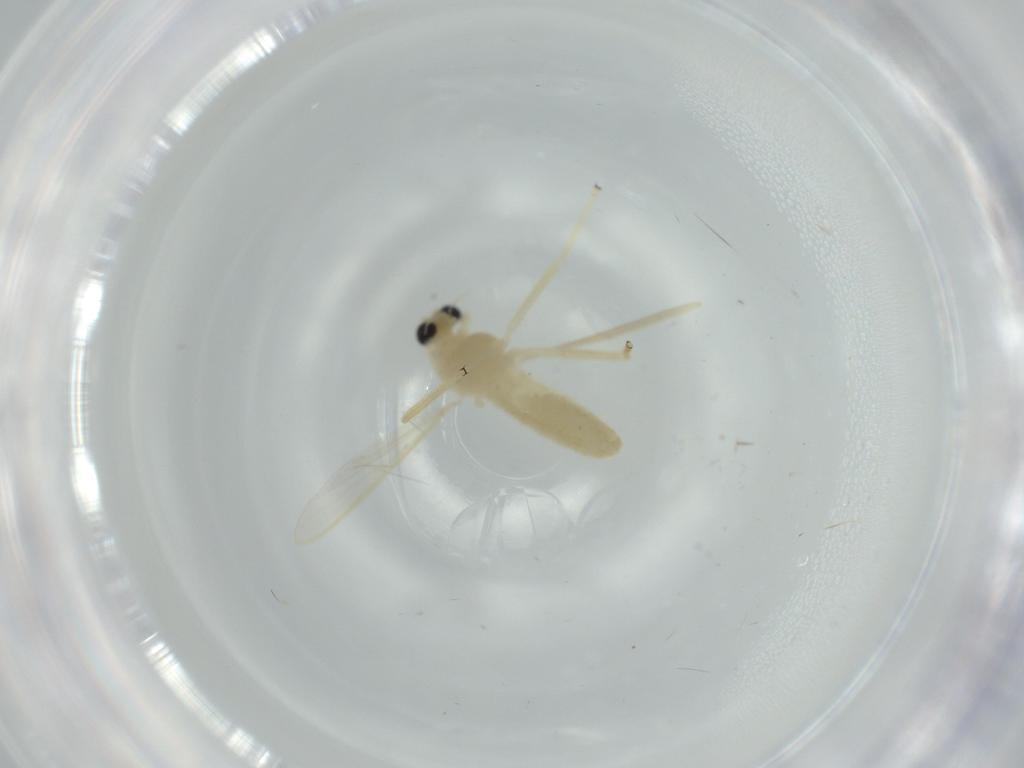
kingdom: Animalia
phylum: Arthropoda
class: Insecta
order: Diptera
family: Chironomidae
